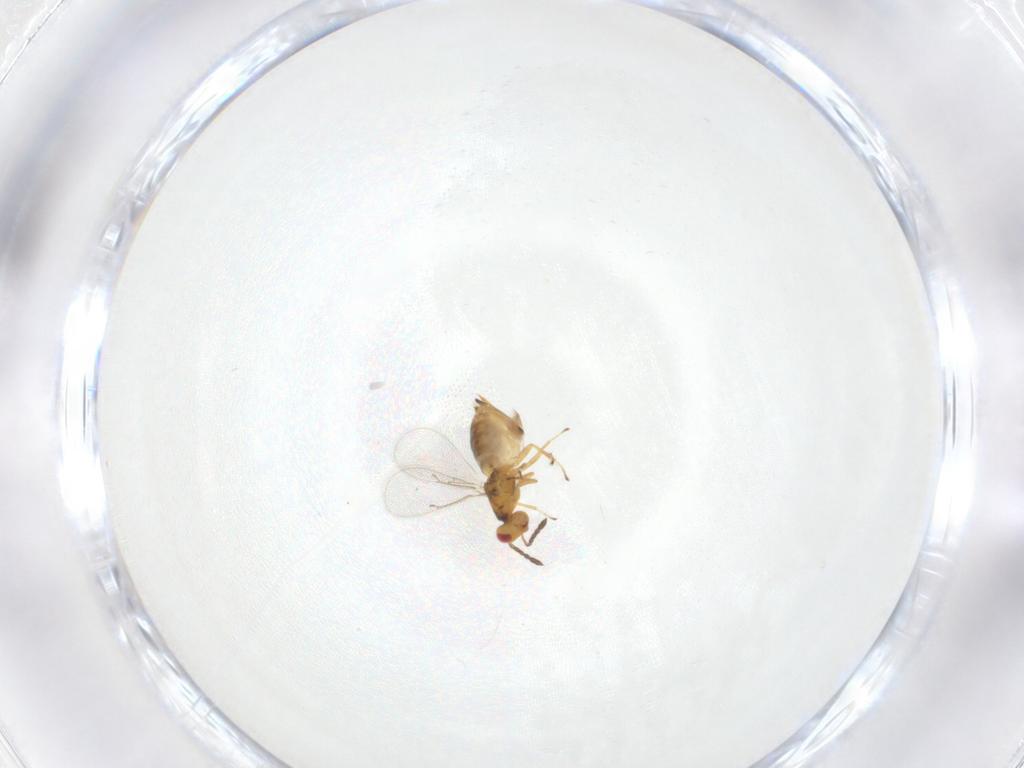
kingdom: Animalia
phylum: Arthropoda
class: Insecta
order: Hymenoptera
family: Eulophidae
